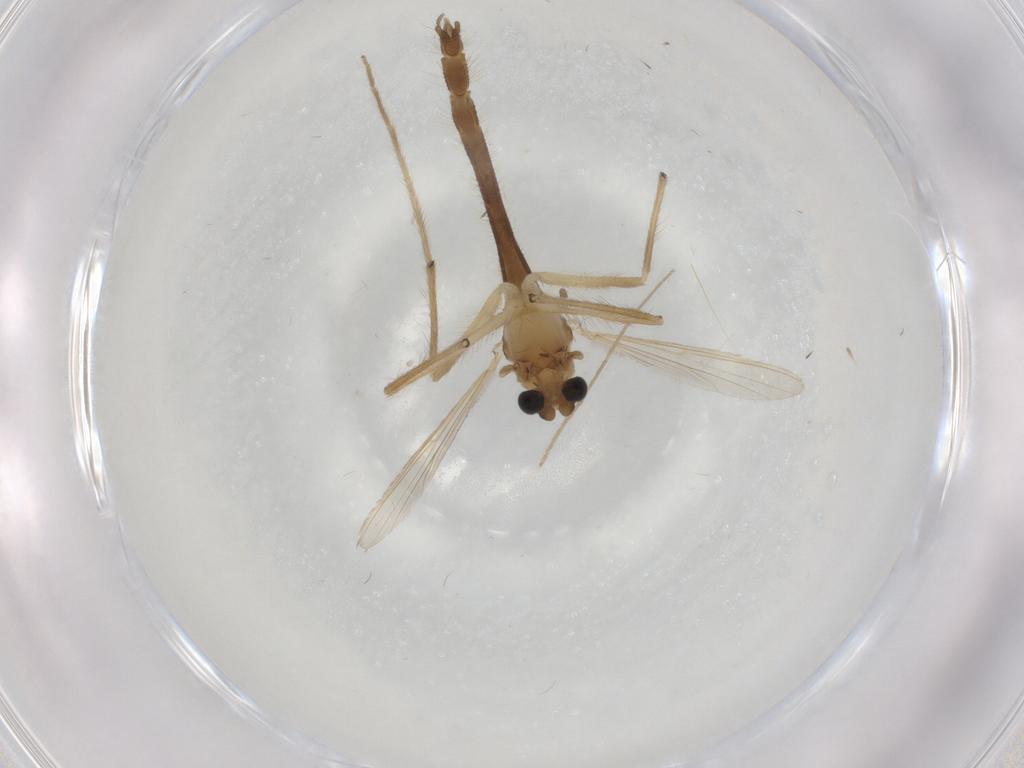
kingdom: Animalia
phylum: Arthropoda
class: Insecta
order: Diptera
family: Chironomidae
